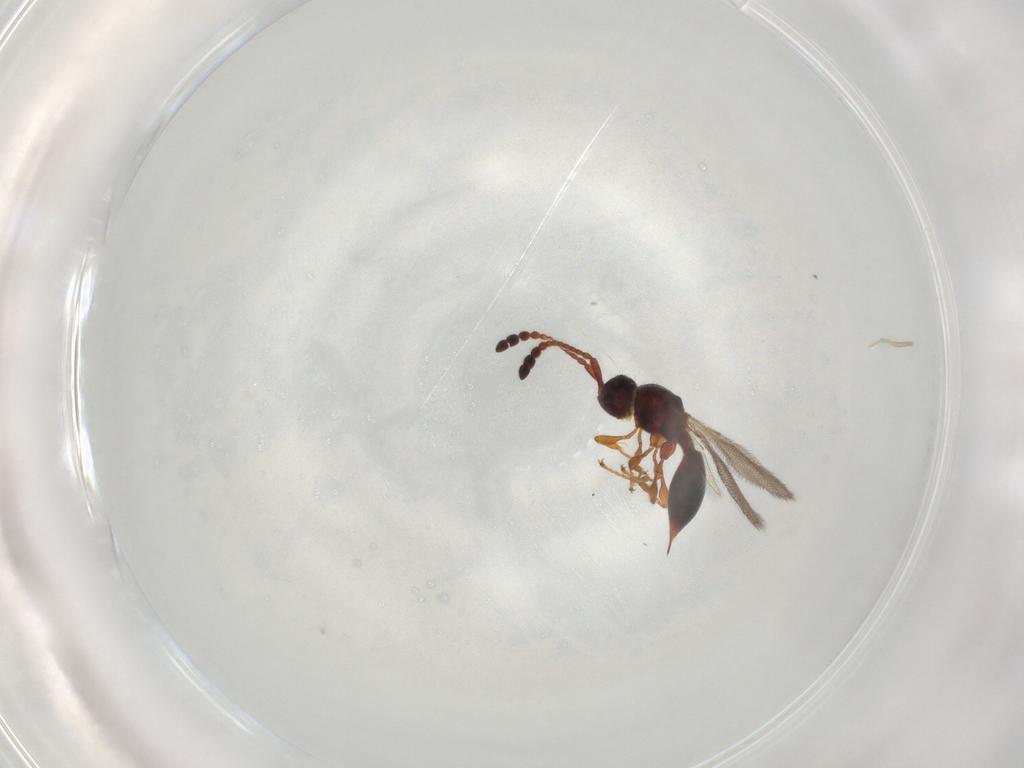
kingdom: Animalia
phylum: Arthropoda
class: Insecta
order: Hymenoptera
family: Diapriidae
